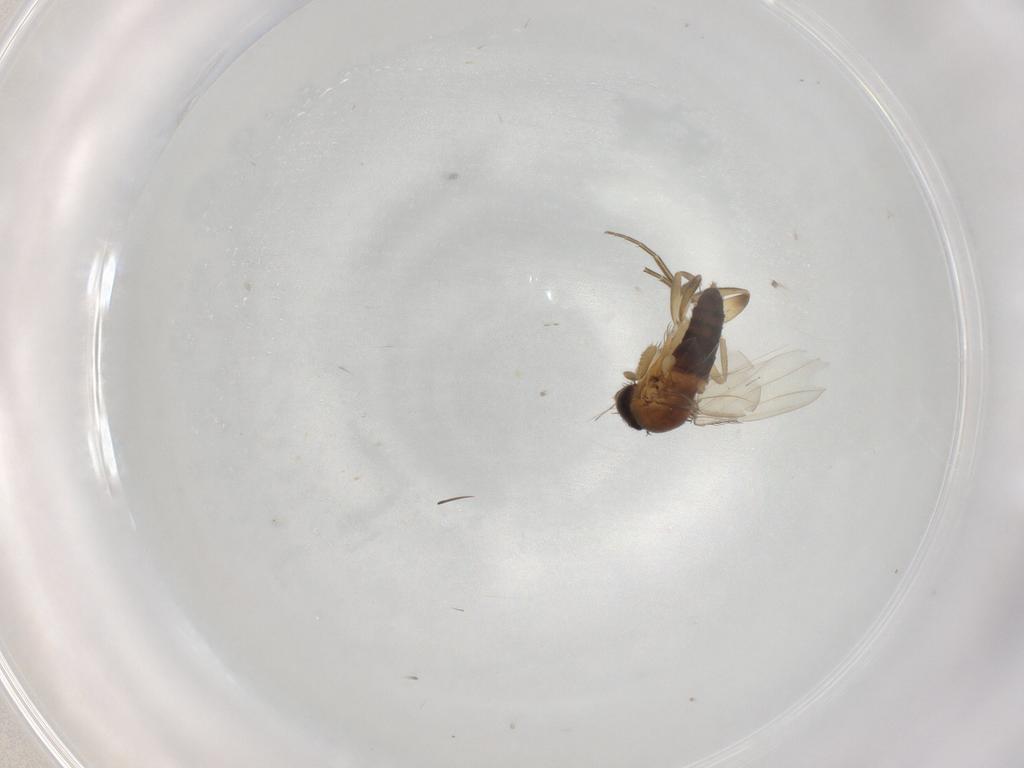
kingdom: Animalia
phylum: Arthropoda
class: Insecta
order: Diptera
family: Phoridae
